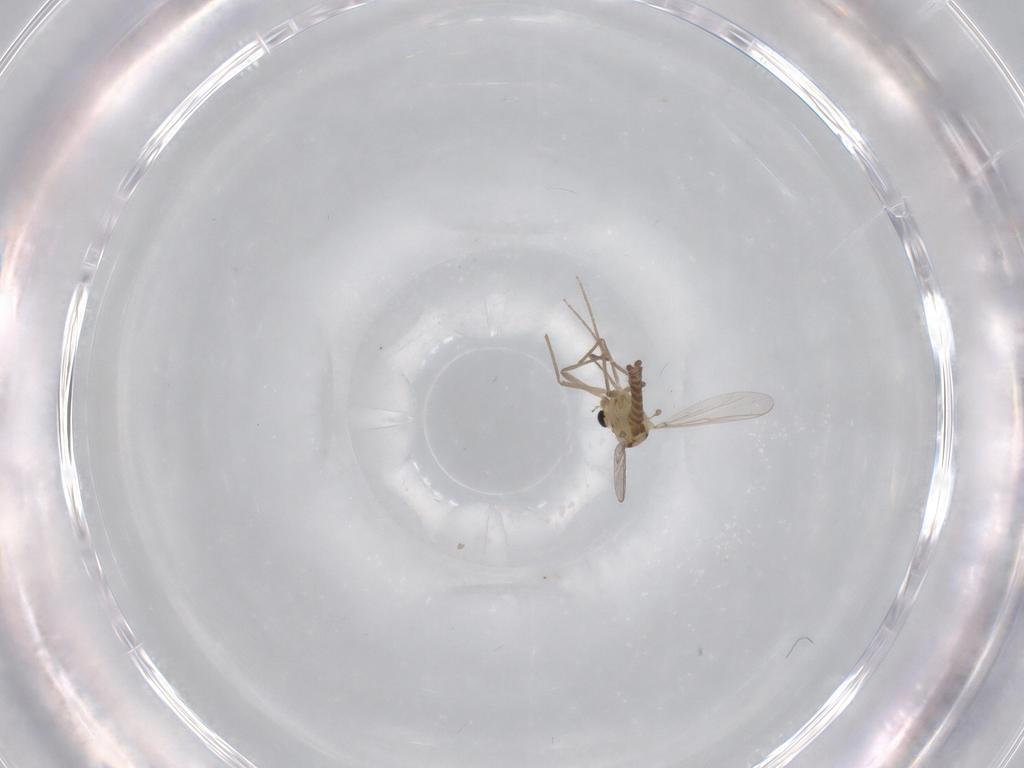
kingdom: Animalia
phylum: Arthropoda
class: Insecta
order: Diptera
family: Chironomidae
